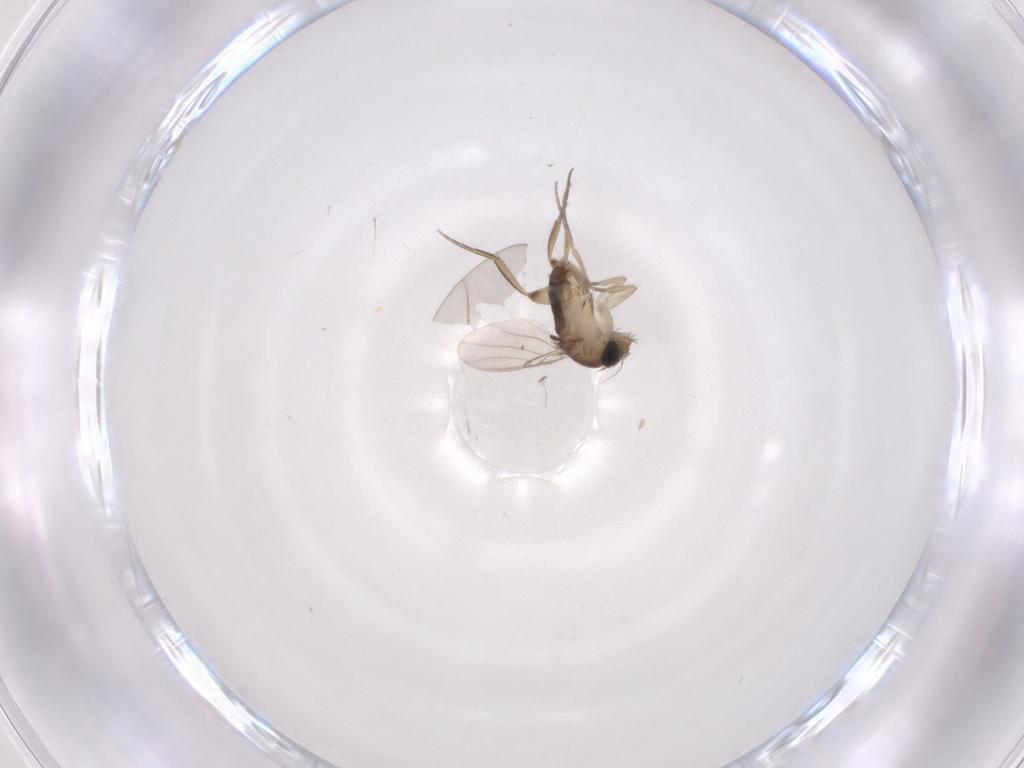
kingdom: Animalia
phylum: Arthropoda
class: Insecta
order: Diptera
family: Phoridae
